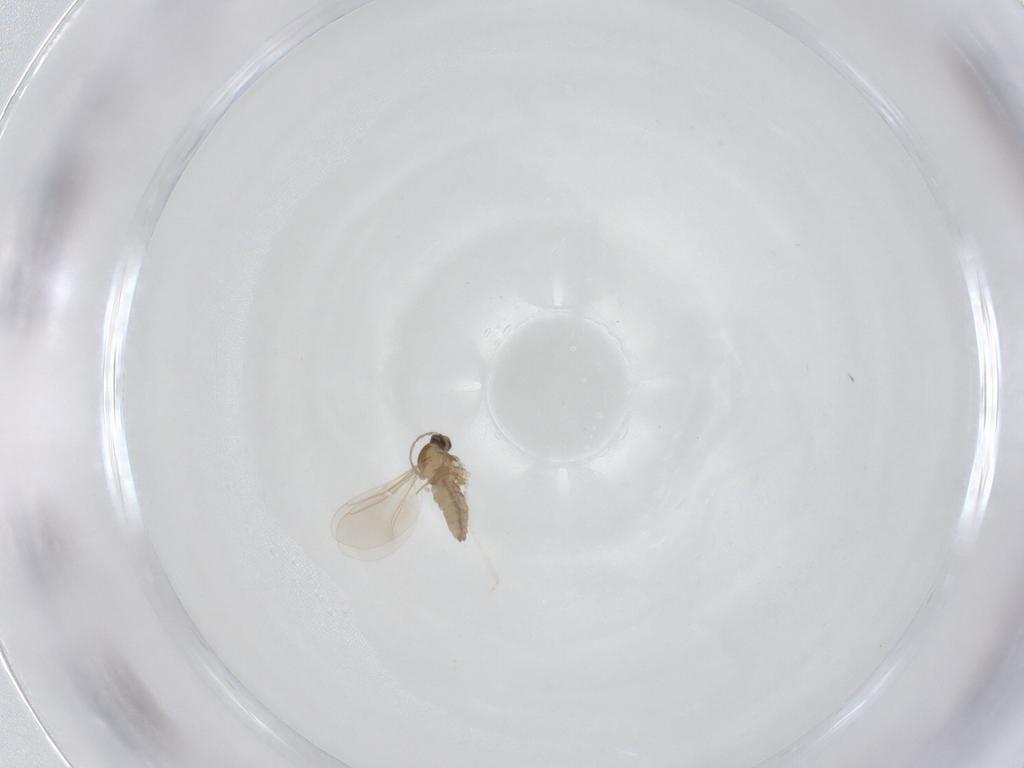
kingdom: Animalia
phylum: Arthropoda
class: Insecta
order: Diptera
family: Cecidomyiidae
